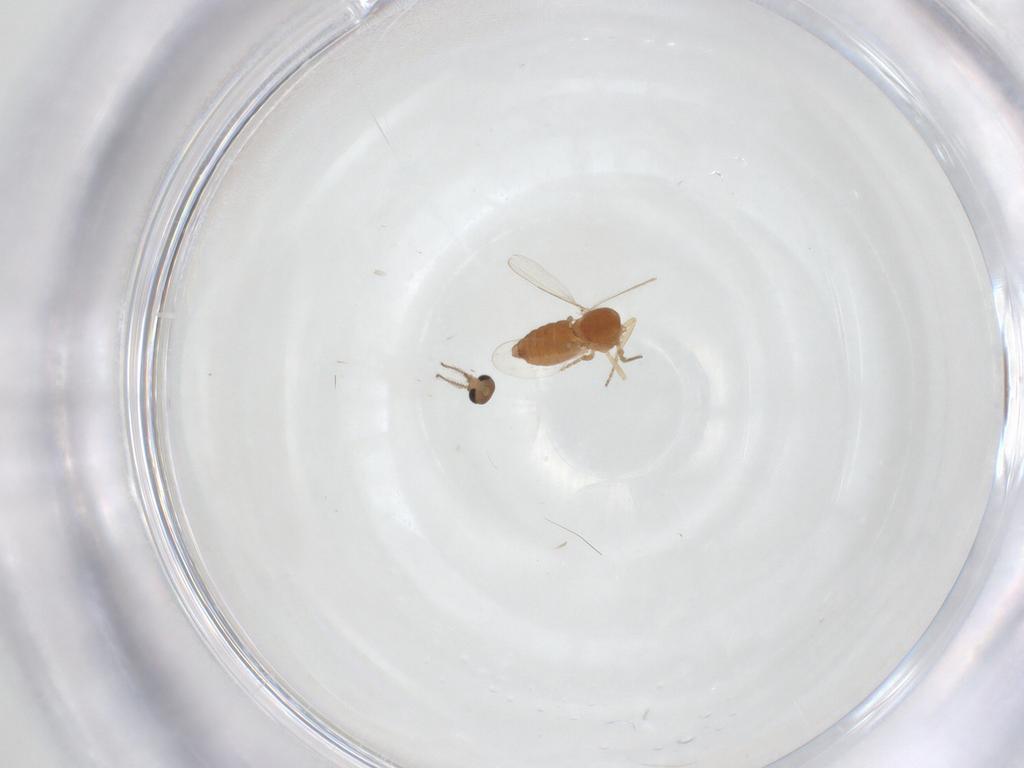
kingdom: Animalia
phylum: Arthropoda
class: Insecta
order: Diptera
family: Ceratopogonidae
